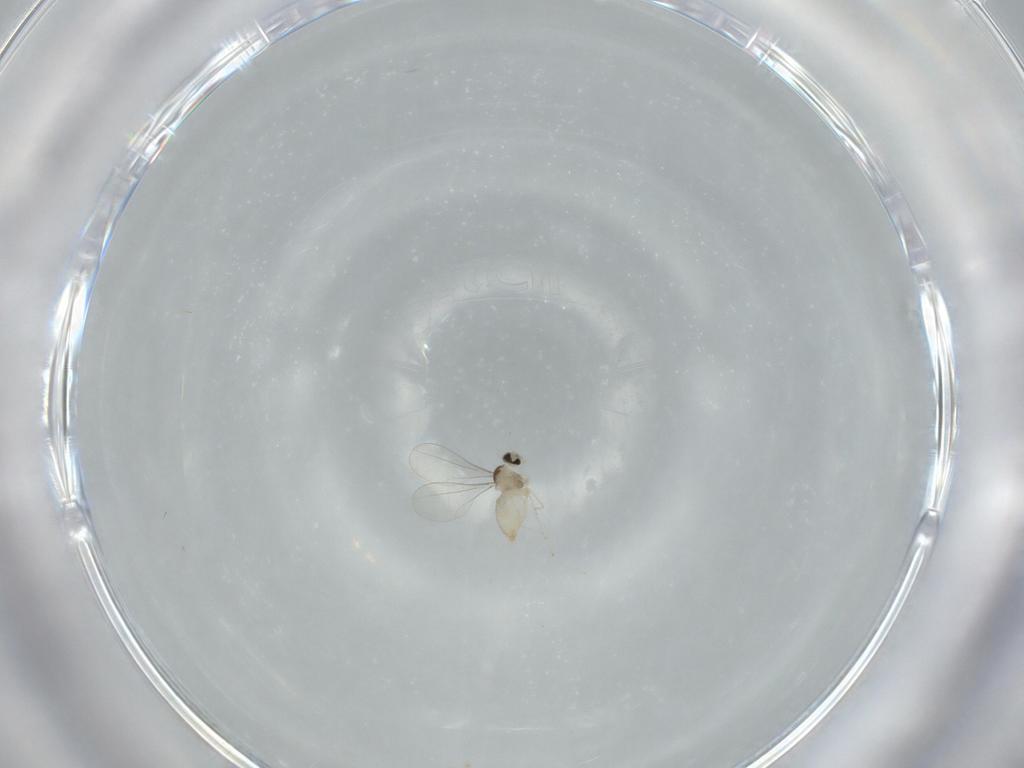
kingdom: Animalia
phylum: Arthropoda
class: Insecta
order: Diptera
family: Cecidomyiidae
